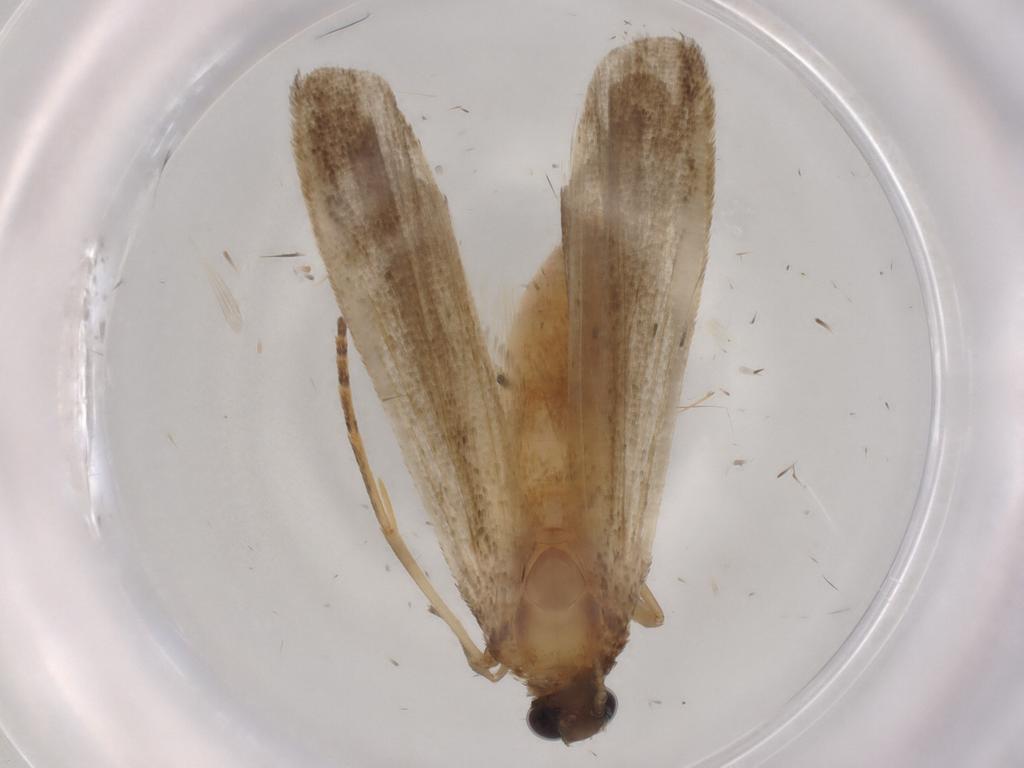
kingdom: Animalia
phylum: Arthropoda
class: Insecta
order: Lepidoptera
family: Noctuidae
